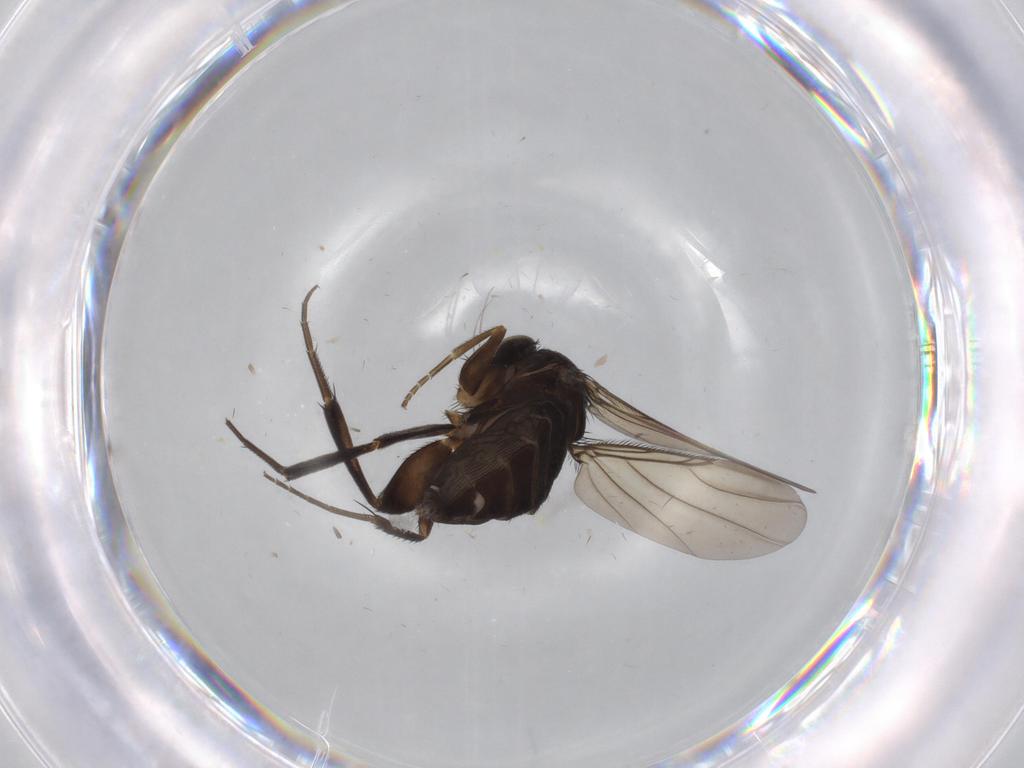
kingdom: Animalia
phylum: Arthropoda
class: Insecta
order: Diptera
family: Phoridae
